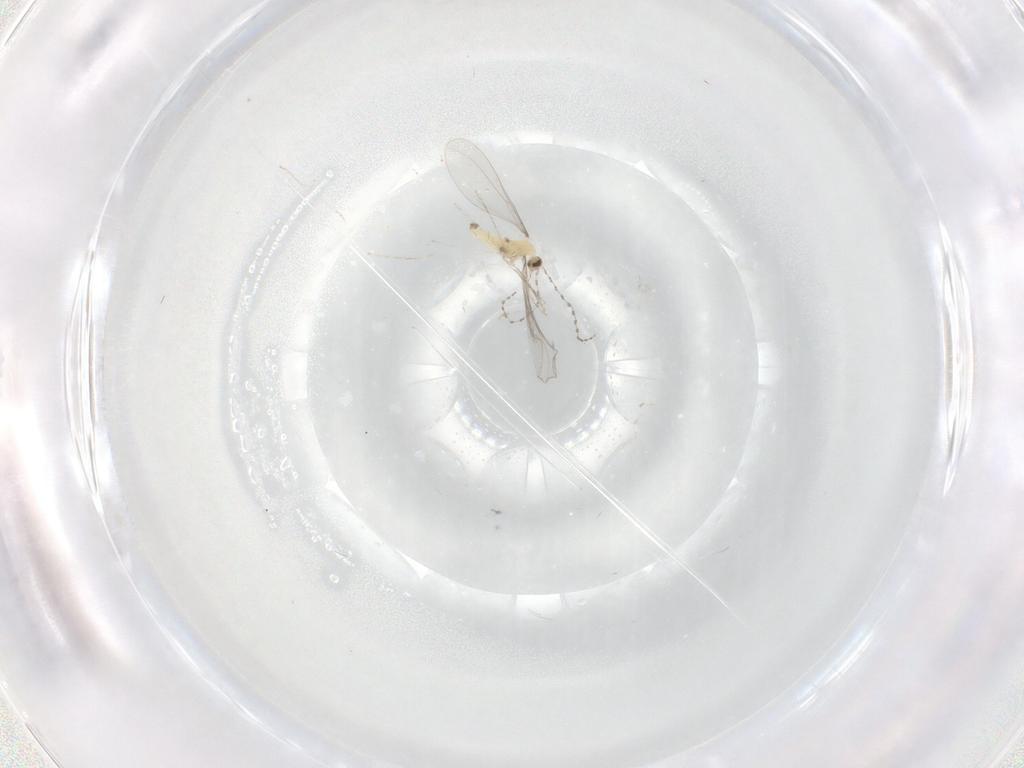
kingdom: Animalia
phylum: Arthropoda
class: Insecta
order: Diptera
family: Cecidomyiidae
